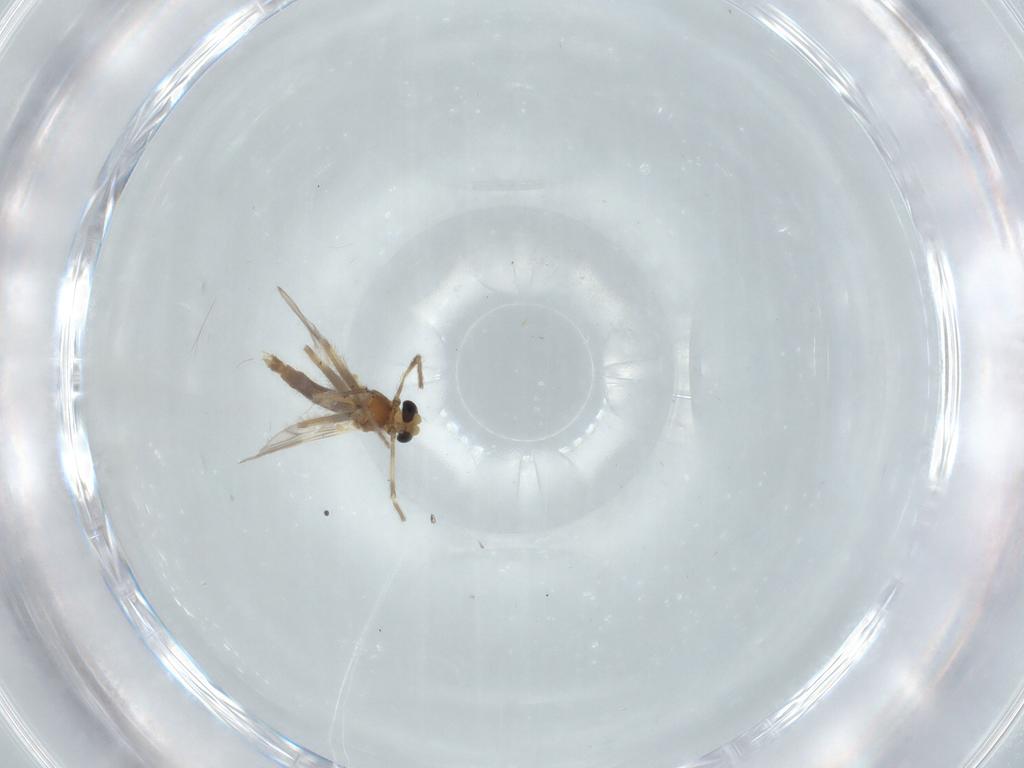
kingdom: Animalia
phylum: Arthropoda
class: Insecta
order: Diptera
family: Chironomidae
